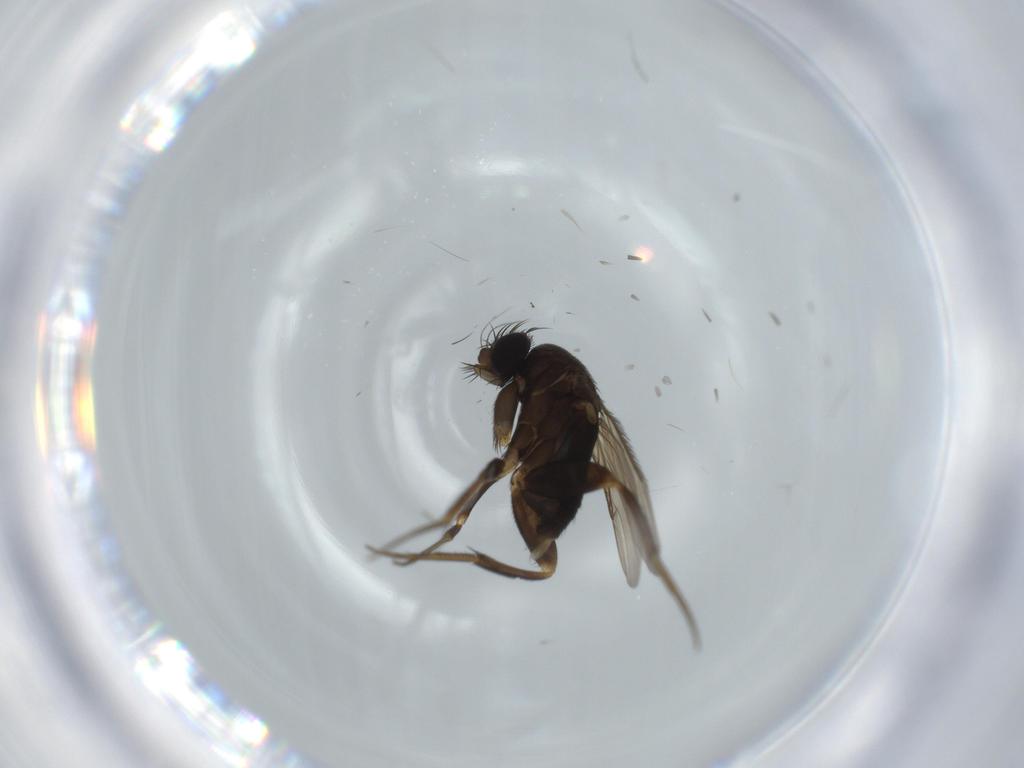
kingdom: Animalia
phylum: Arthropoda
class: Insecta
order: Diptera
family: Phoridae
